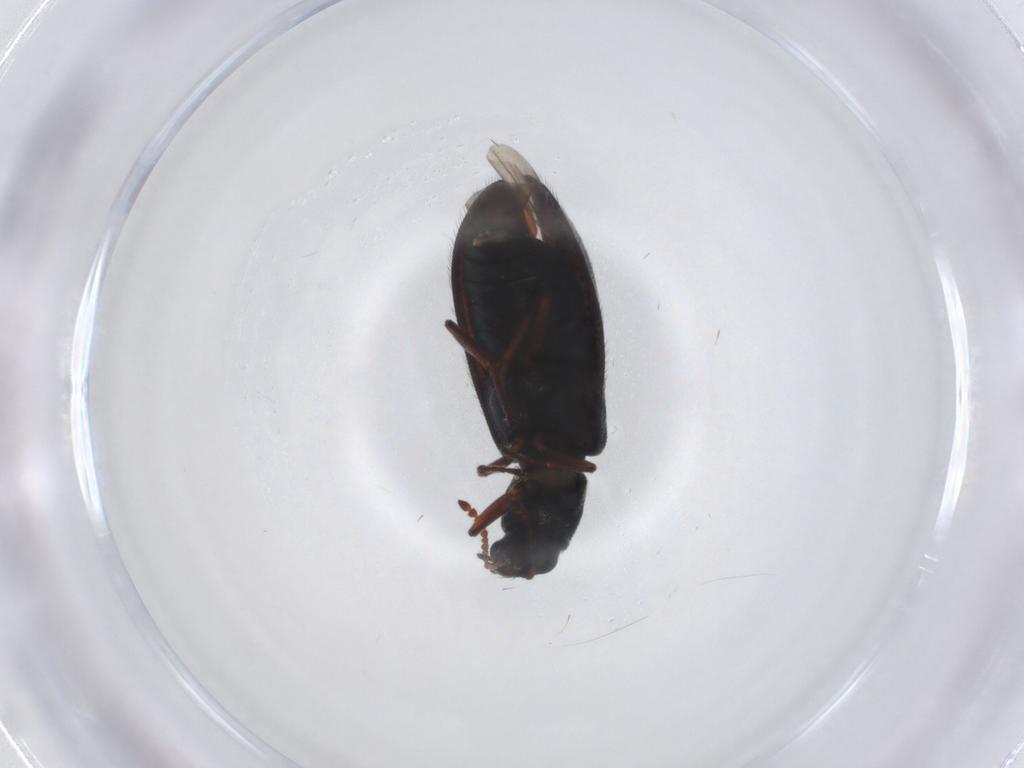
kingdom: Animalia
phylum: Arthropoda
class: Insecta
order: Coleoptera
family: Melyridae
